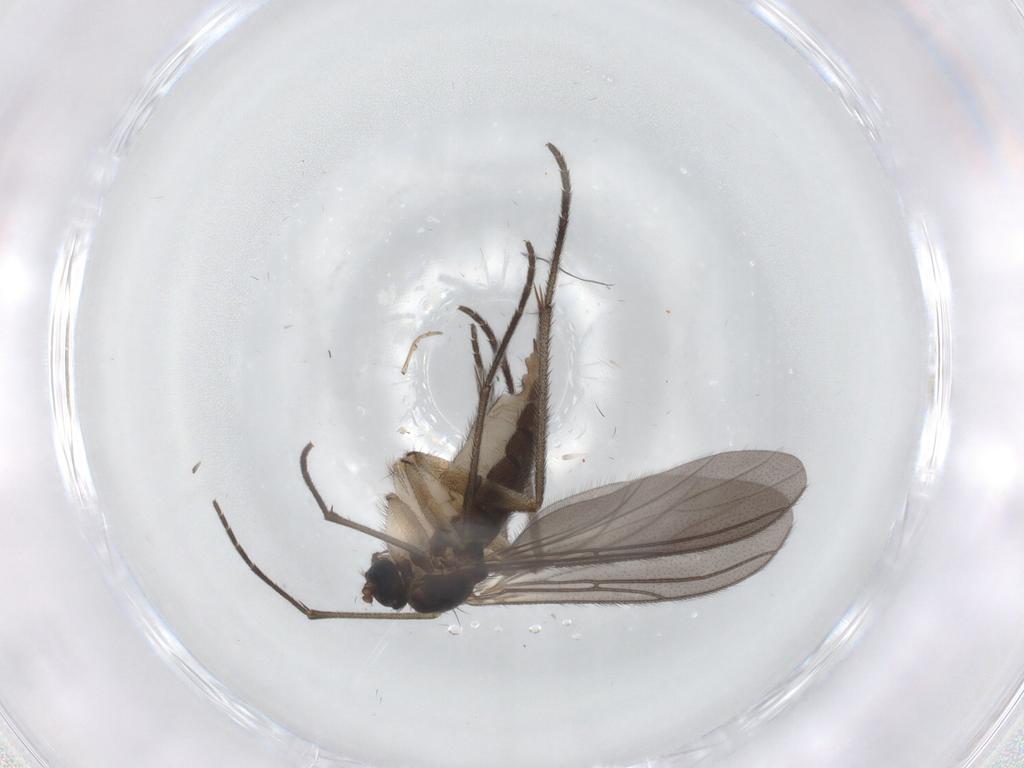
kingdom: Animalia
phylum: Arthropoda
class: Insecta
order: Diptera
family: Sciaridae
